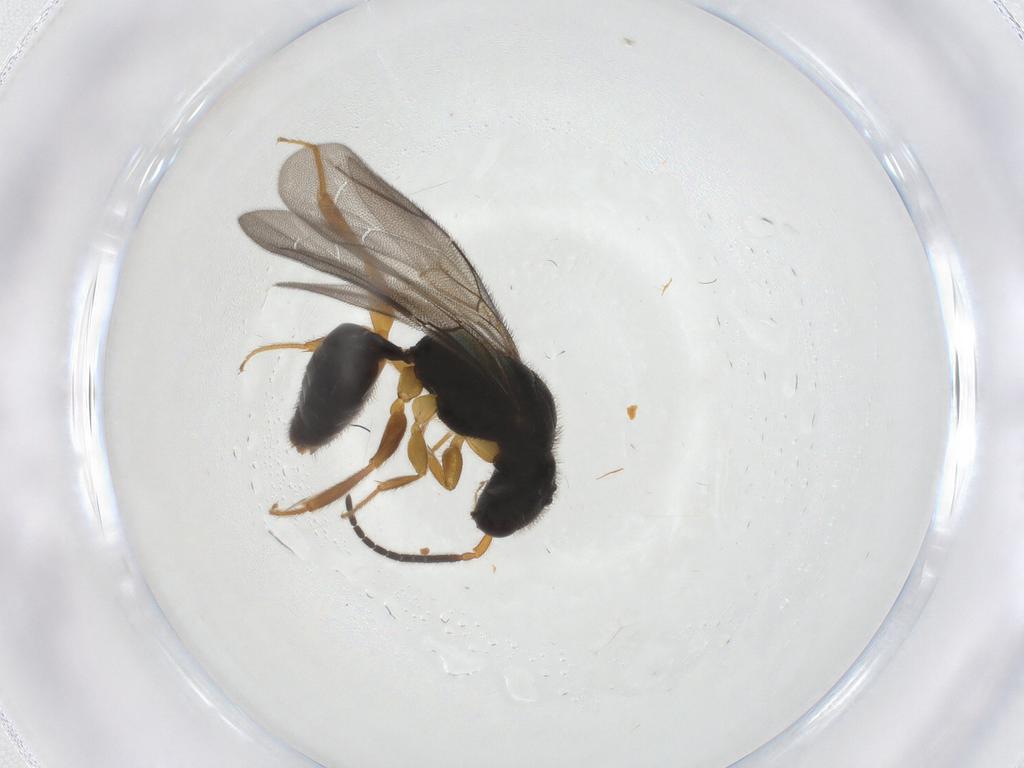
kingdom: Animalia
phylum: Arthropoda
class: Insecta
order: Hymenoptera
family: Bethylidae
